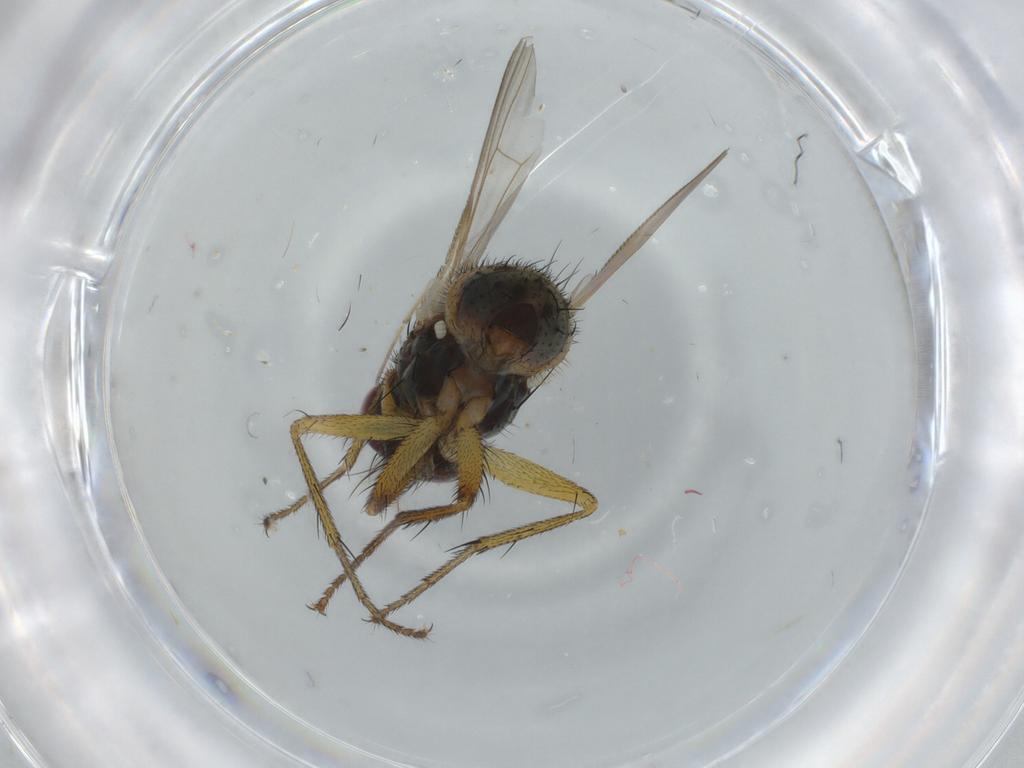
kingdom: Animalia
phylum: Arthropoda
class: Insecta
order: Diptera
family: Muscidae
